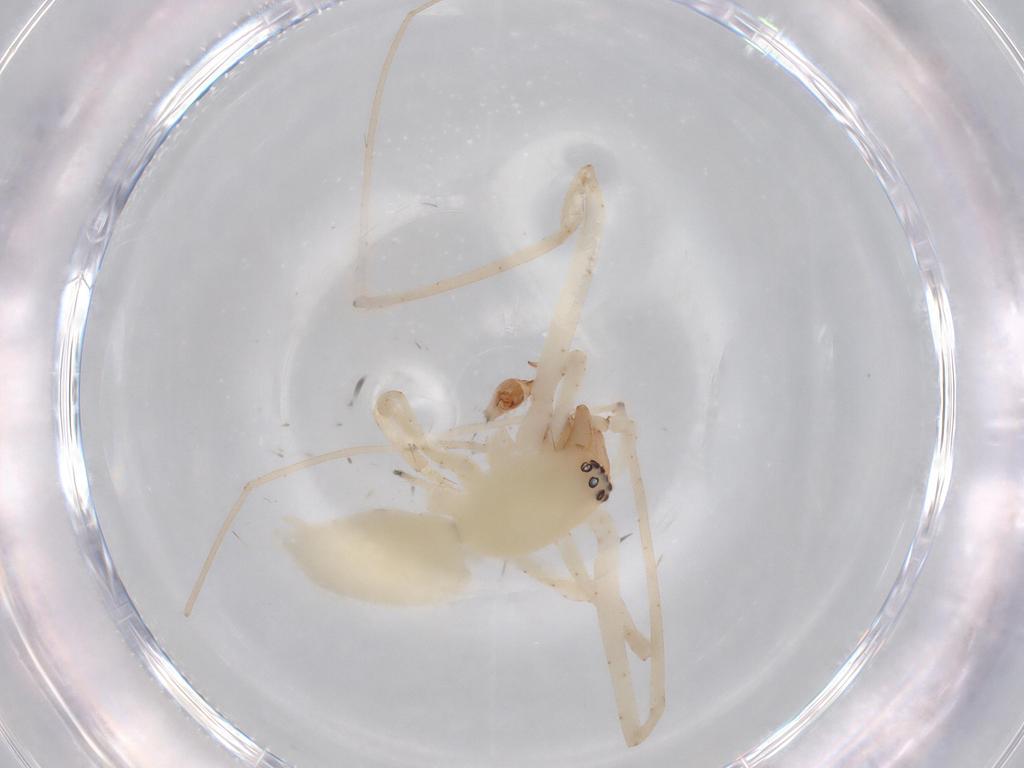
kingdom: Animalia
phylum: Arthropoda
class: Arachnida
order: Araneae
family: Anyphaenidae
